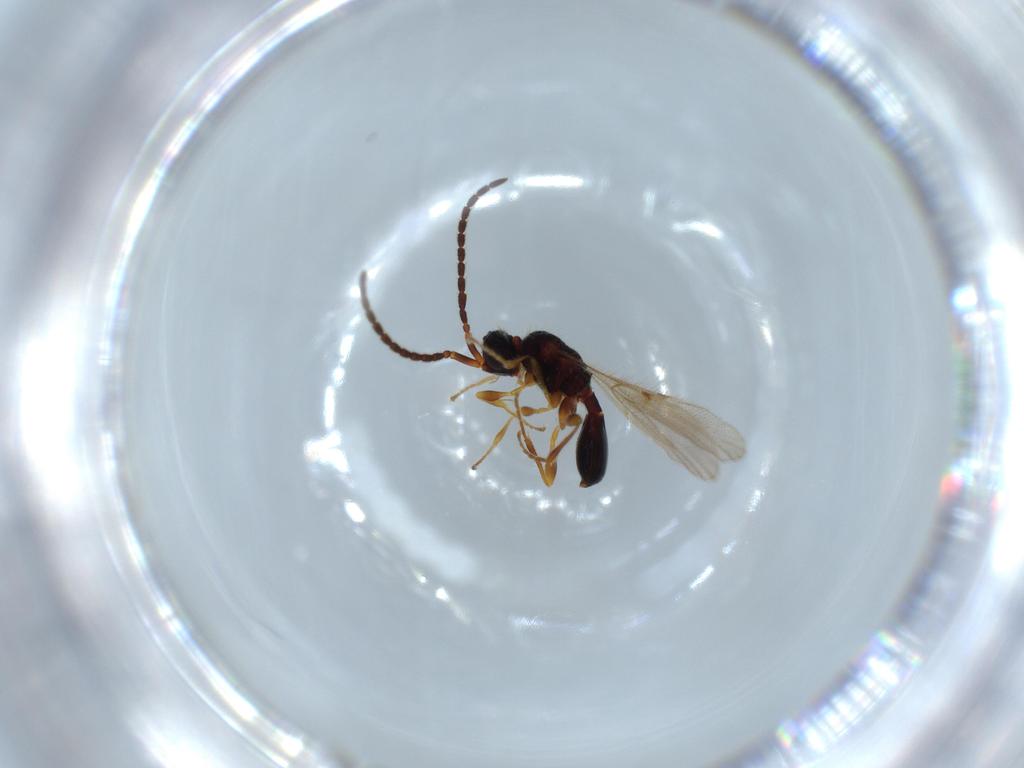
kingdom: Animalia
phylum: Arthropoda
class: Insecta
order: Hymenoptera
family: Diapriidae
